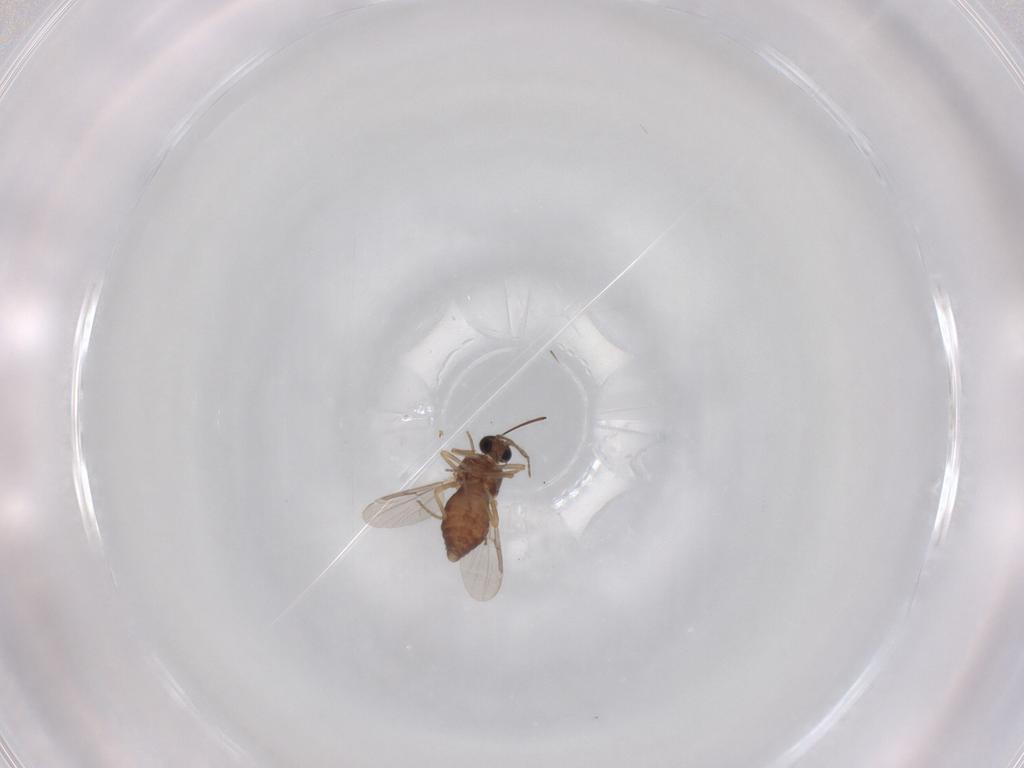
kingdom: Animalia
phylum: Arthropoda
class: Insecta
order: Diptera
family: Ceratopogonidae
